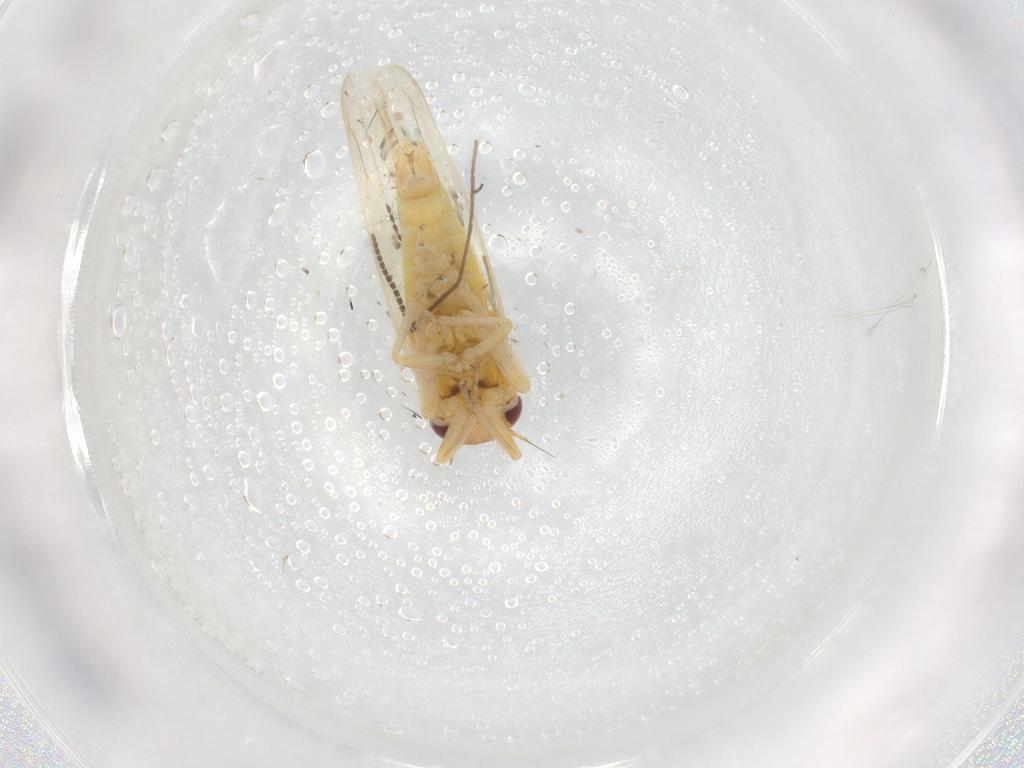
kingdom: Animalia
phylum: Arthropoda
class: Insecta
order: Hemiptera
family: Cicadellidae
